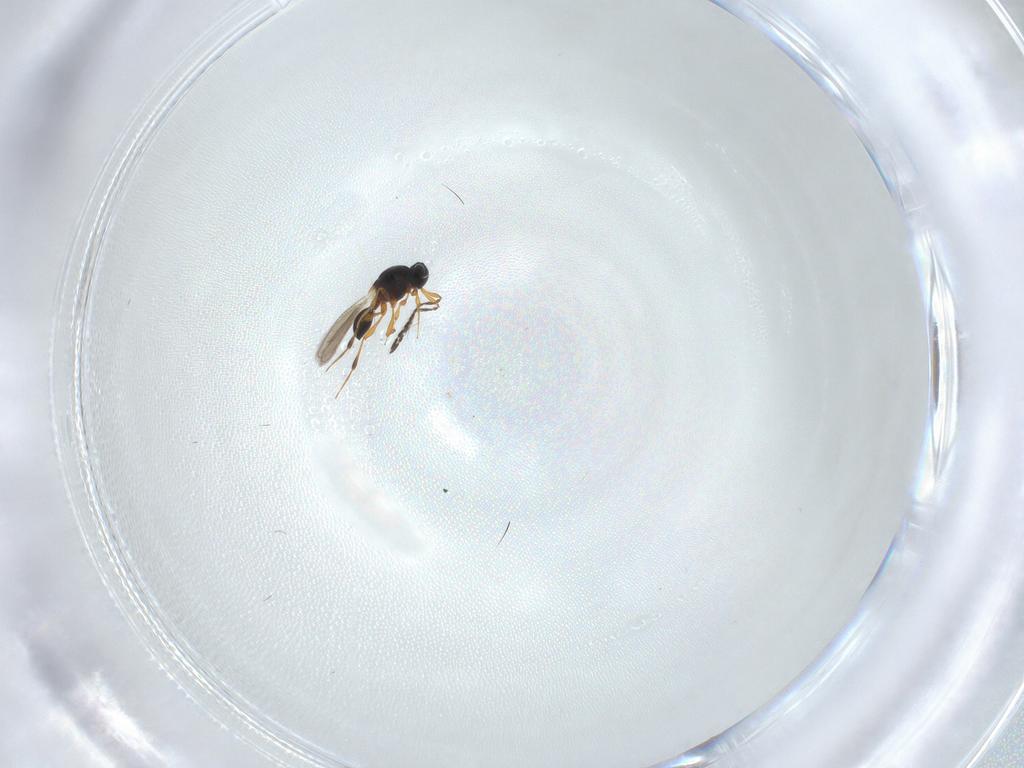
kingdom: Animalia
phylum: Arthropoda
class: Insecta
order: Hymenoptera
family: Platygastridae
